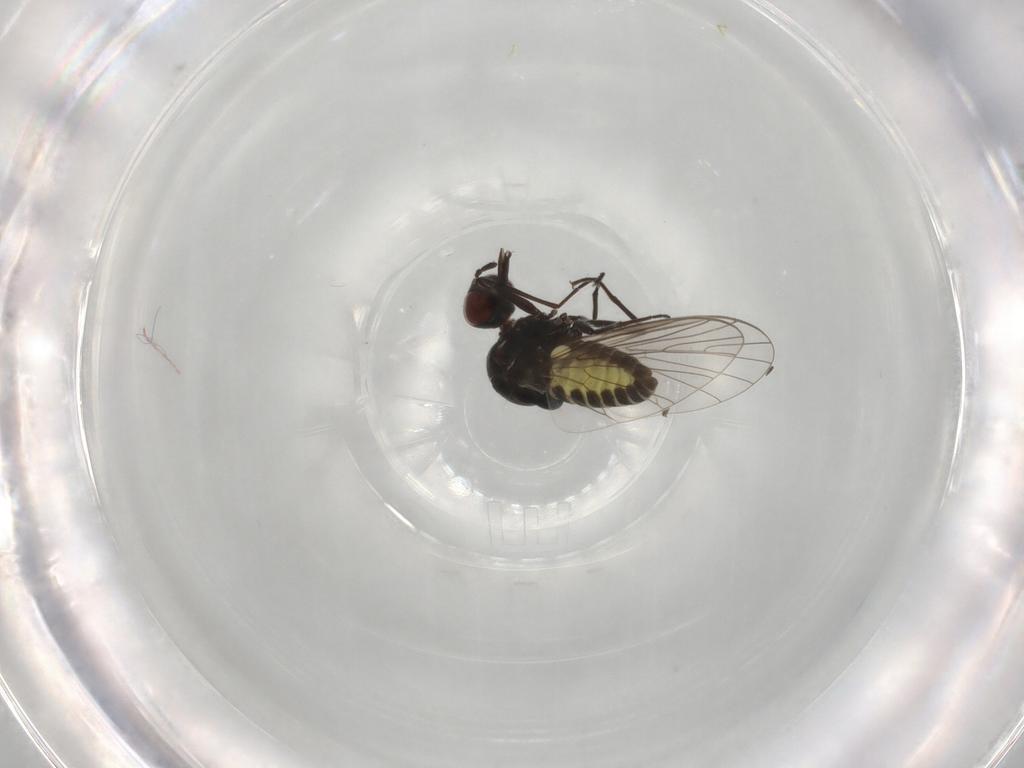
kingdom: Animalia
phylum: Arthropoda
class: Insecta
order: Diptera
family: Bombyliidae
